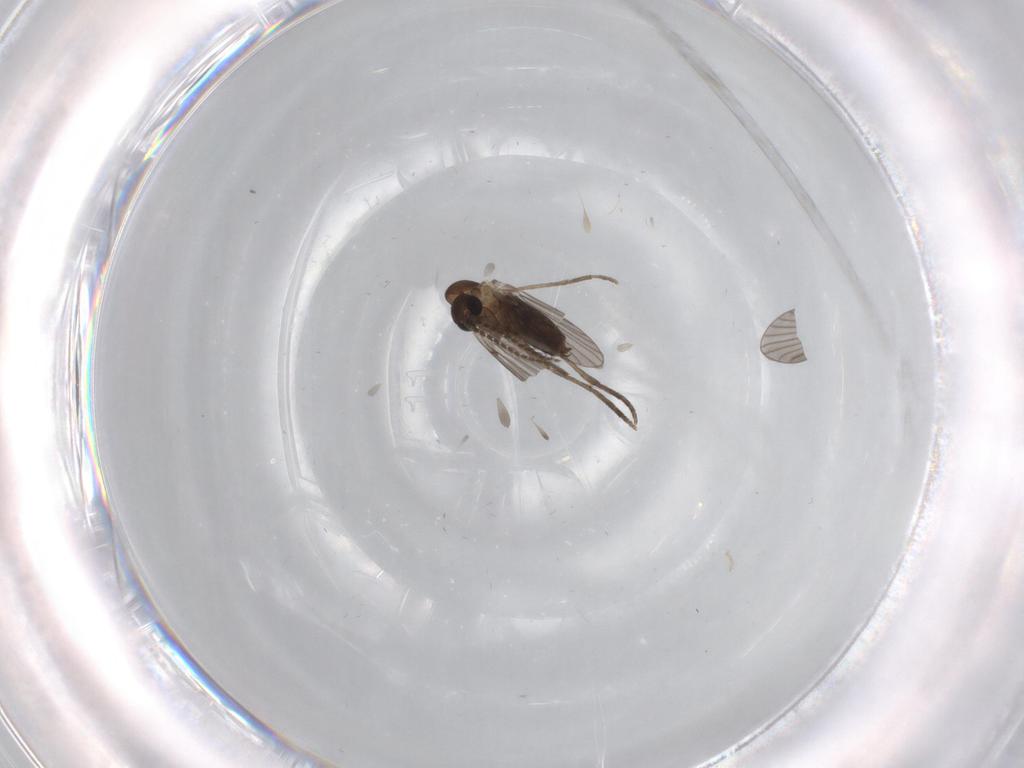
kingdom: Animalia
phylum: Arthropoda
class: Insecta
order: Diptera
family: Psychodidae
